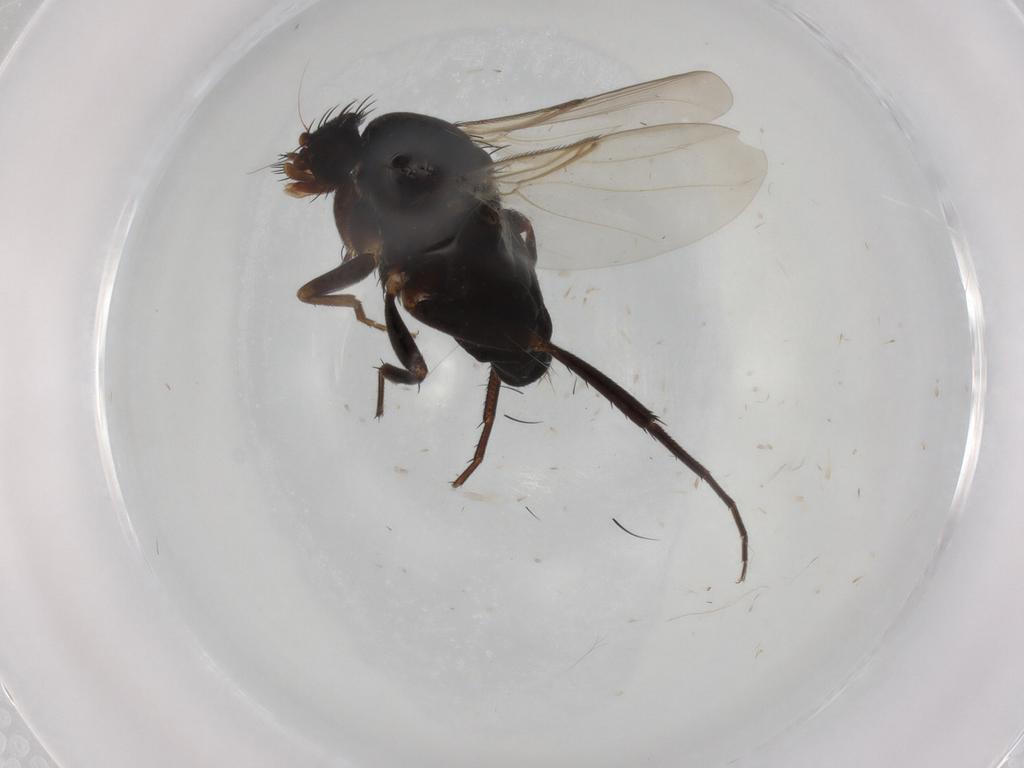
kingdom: Animalia
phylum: Arthropoda
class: Insecta
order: Diptera
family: Phoridae
